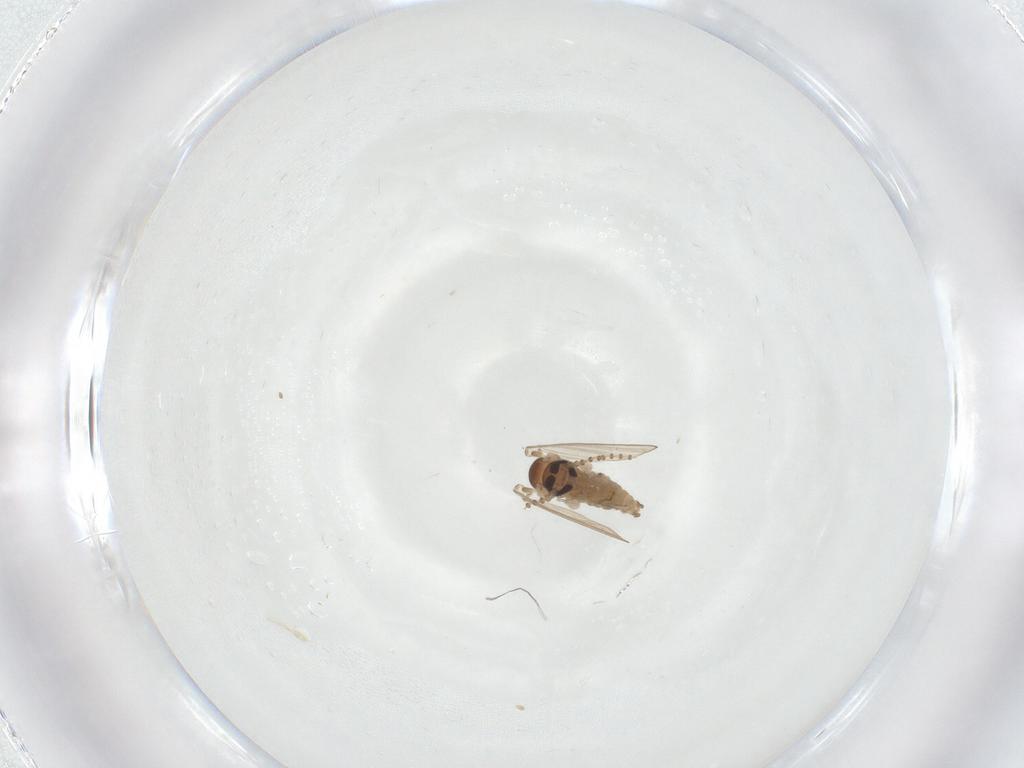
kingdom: Animalia
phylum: Arthropoda
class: Insecta
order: Diptera
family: Psychodidae
